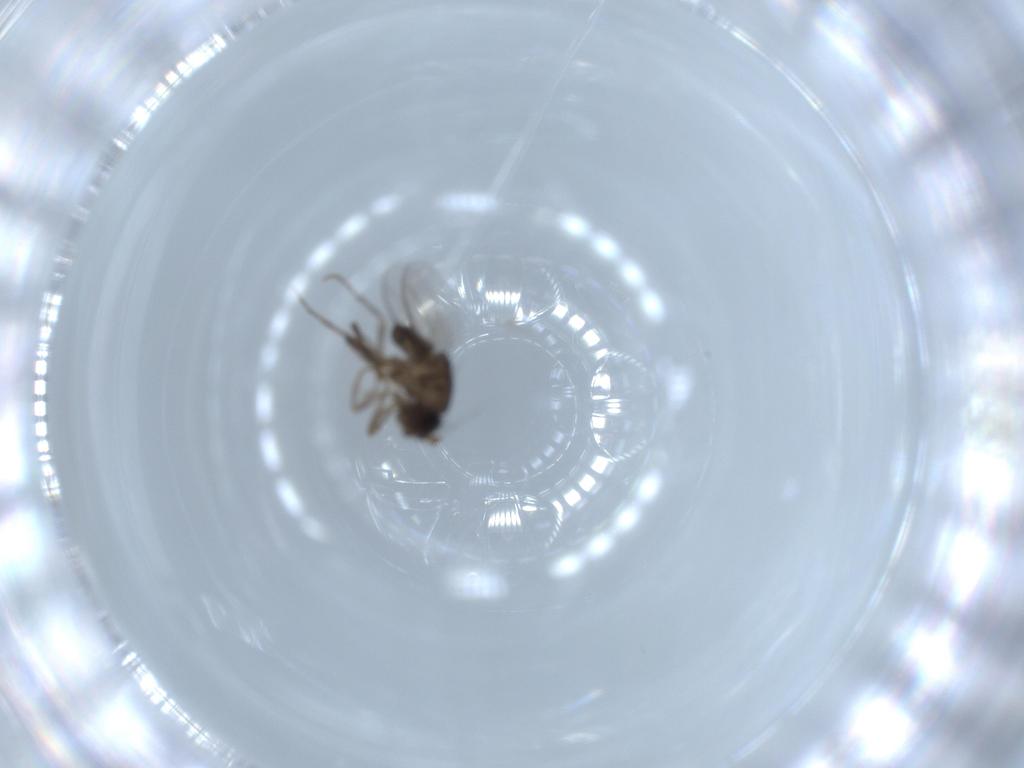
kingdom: Animalia
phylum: Arthropoda
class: Insecta
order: Diptera
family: Sphaeroceridae
